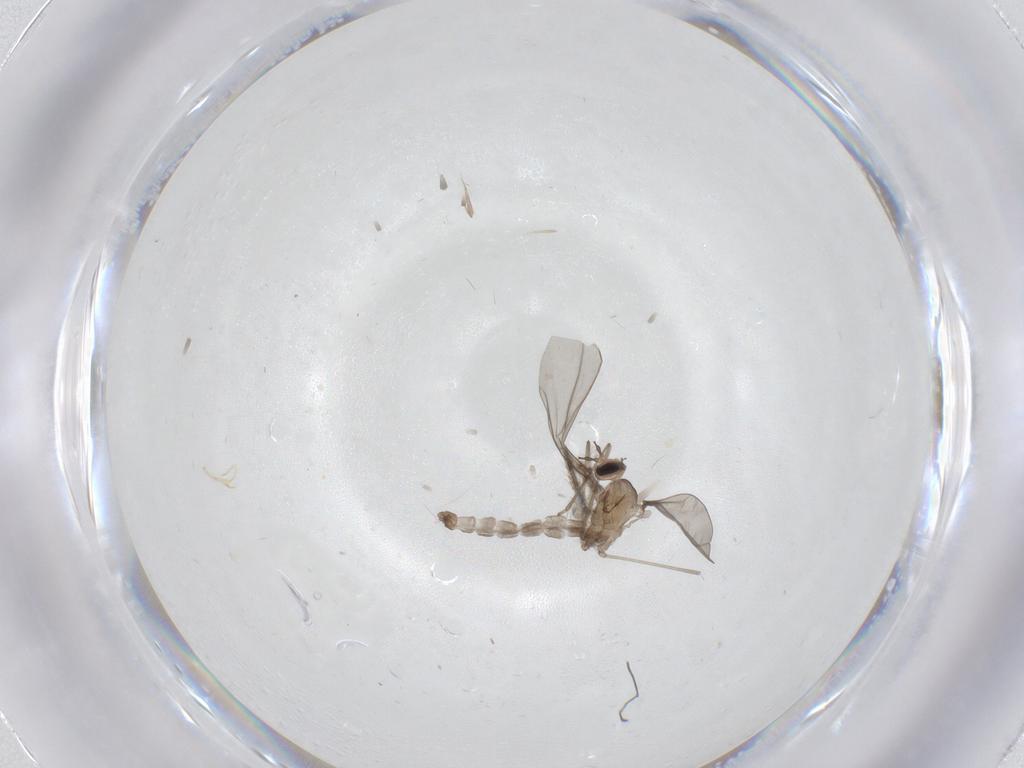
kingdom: Animalia
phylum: Arthropoda
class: Insecta
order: Diptera
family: Sciaridae
